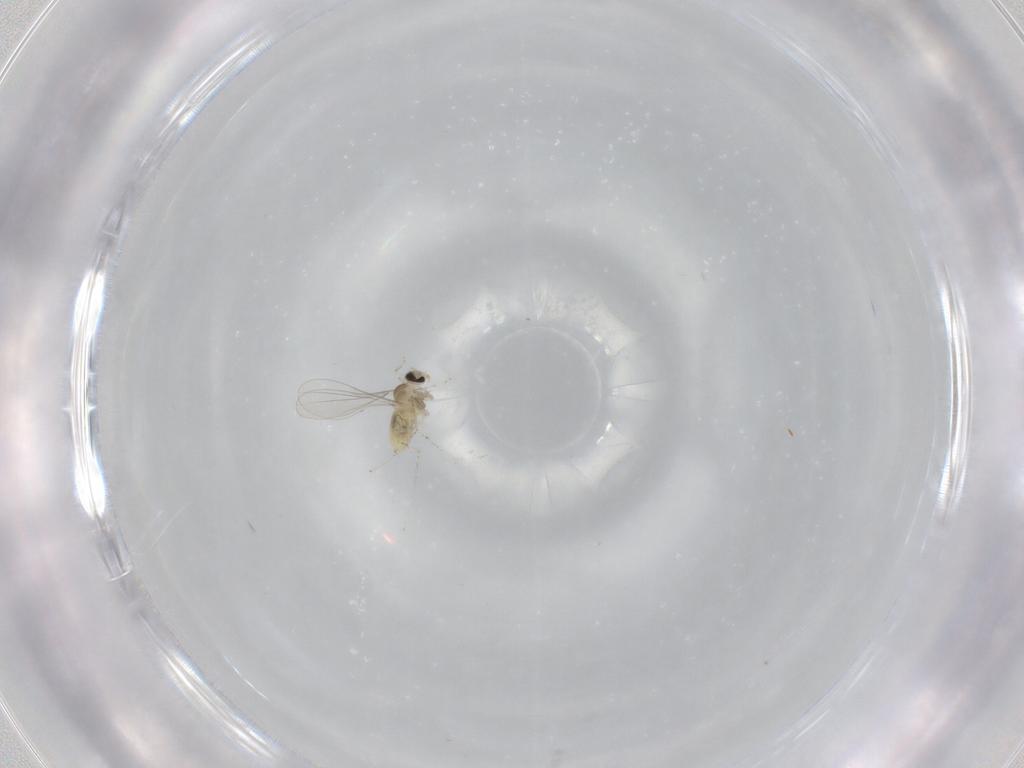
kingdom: Animalia
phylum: Arthropoda
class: Insecta
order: Diptera
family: Cecidomyiidae
